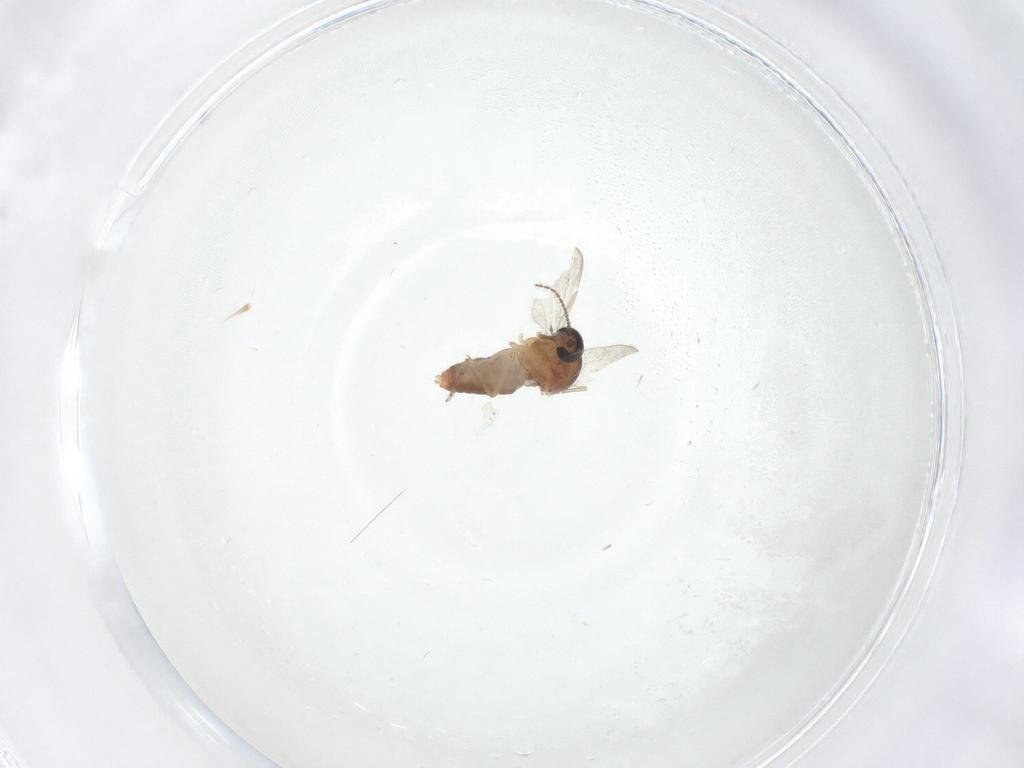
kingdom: Animalia
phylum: Arthropoda
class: Insecta
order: Diptera
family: Ceratopogonidae
